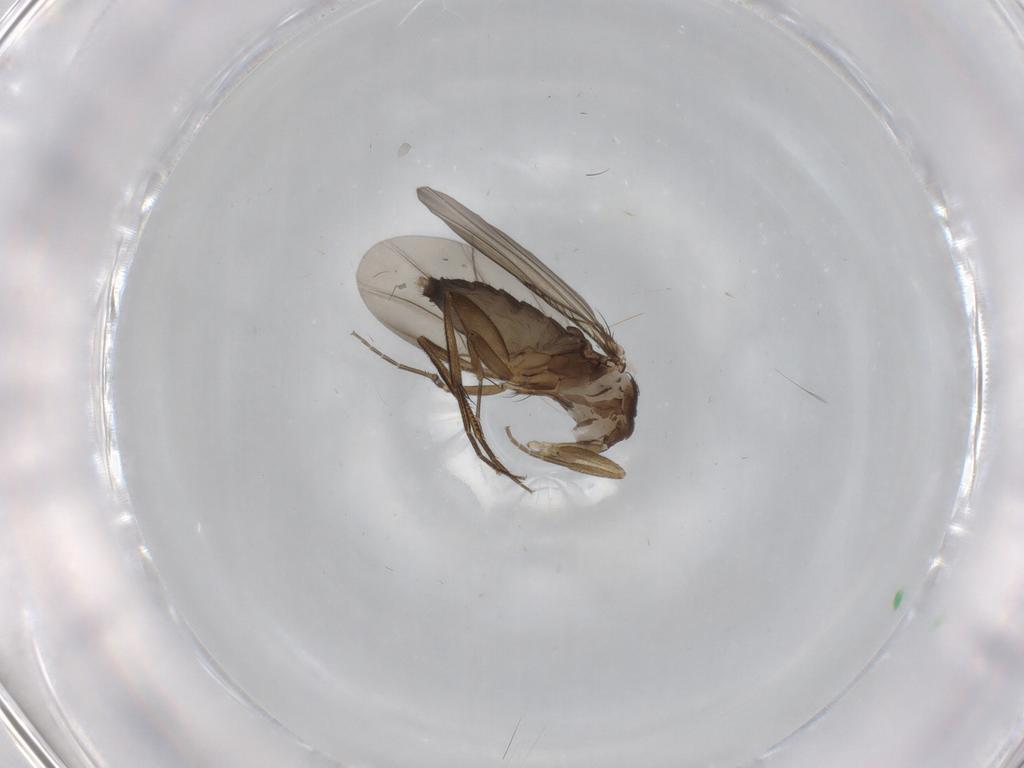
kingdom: Animalia
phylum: Arthropoda
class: Insecta
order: Diptera
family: Phoridae
